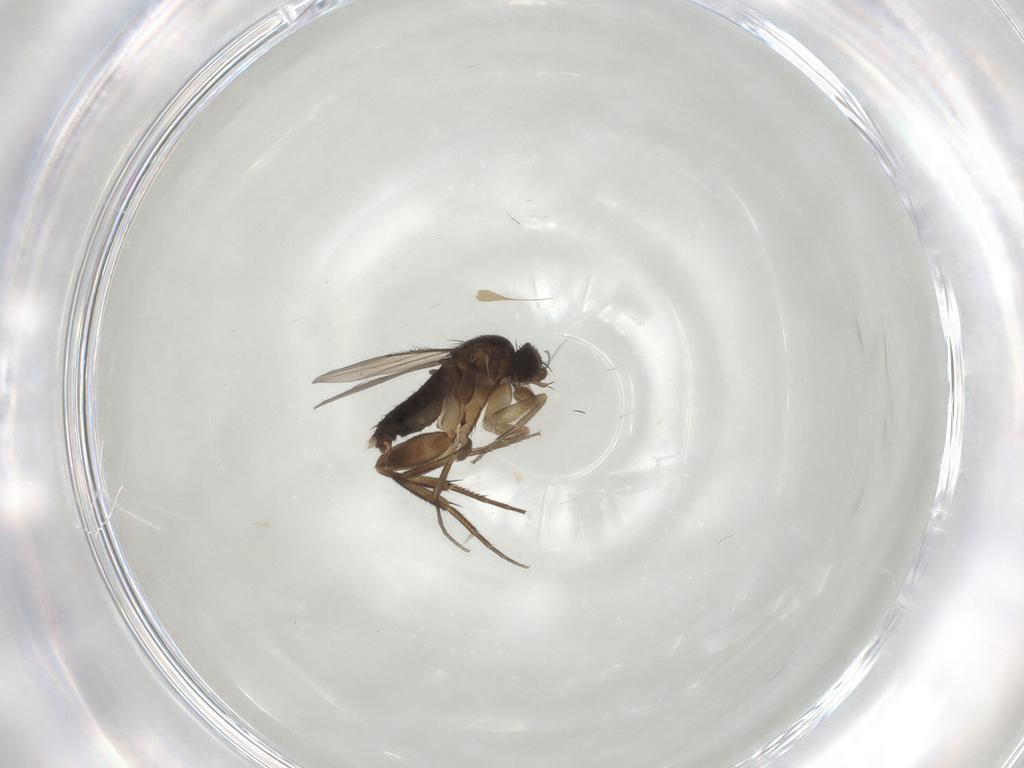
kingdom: Animalia
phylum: Arthropoda
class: Insecta
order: Diptera
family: Phoridae
